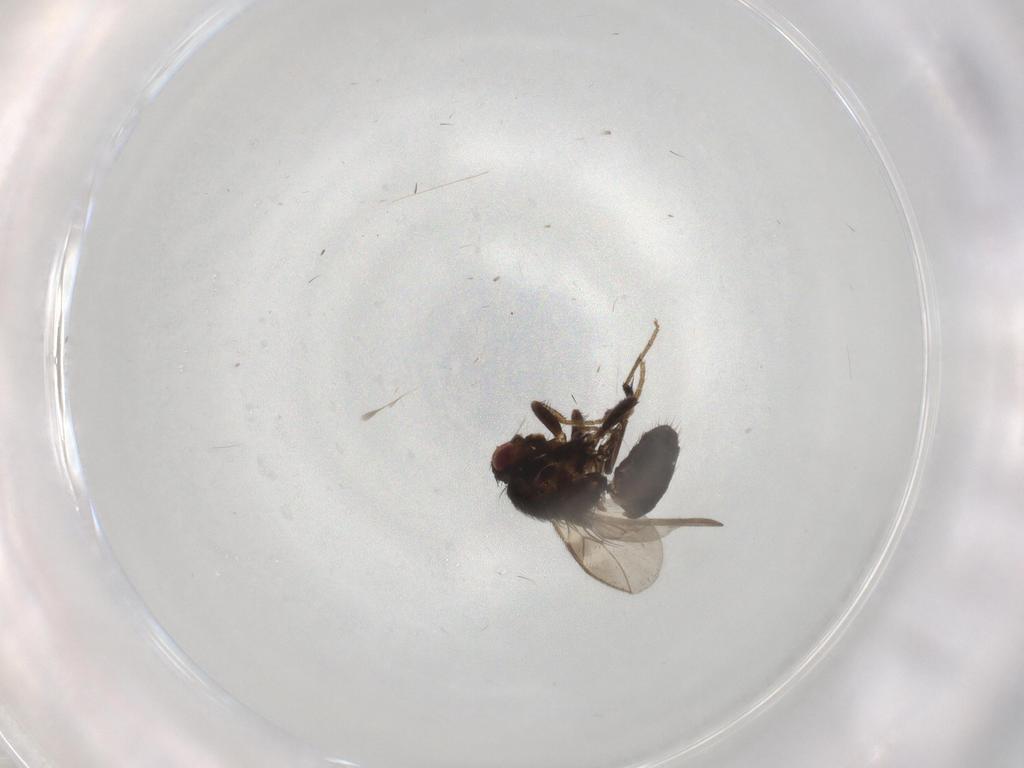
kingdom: Animalia
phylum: Arthropoda
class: Insecta
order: Diptera
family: Sphaeroceridae
